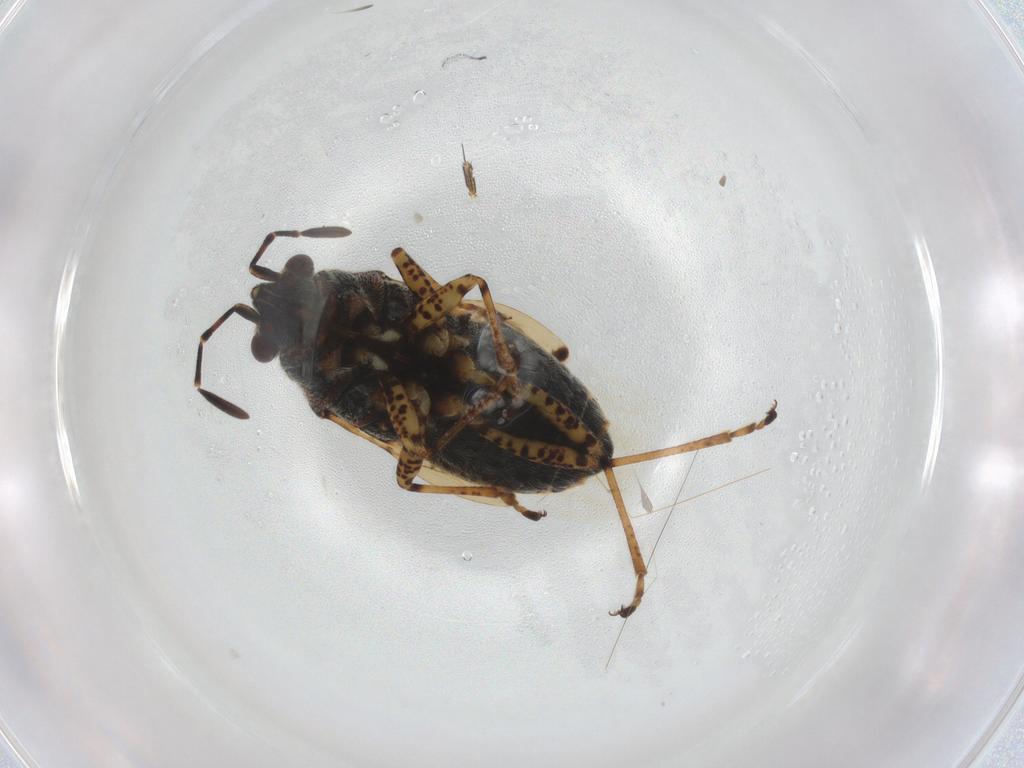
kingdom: Animalia
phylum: Arthropoda
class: Insecta
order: Hemiptera
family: Lygaeidae
